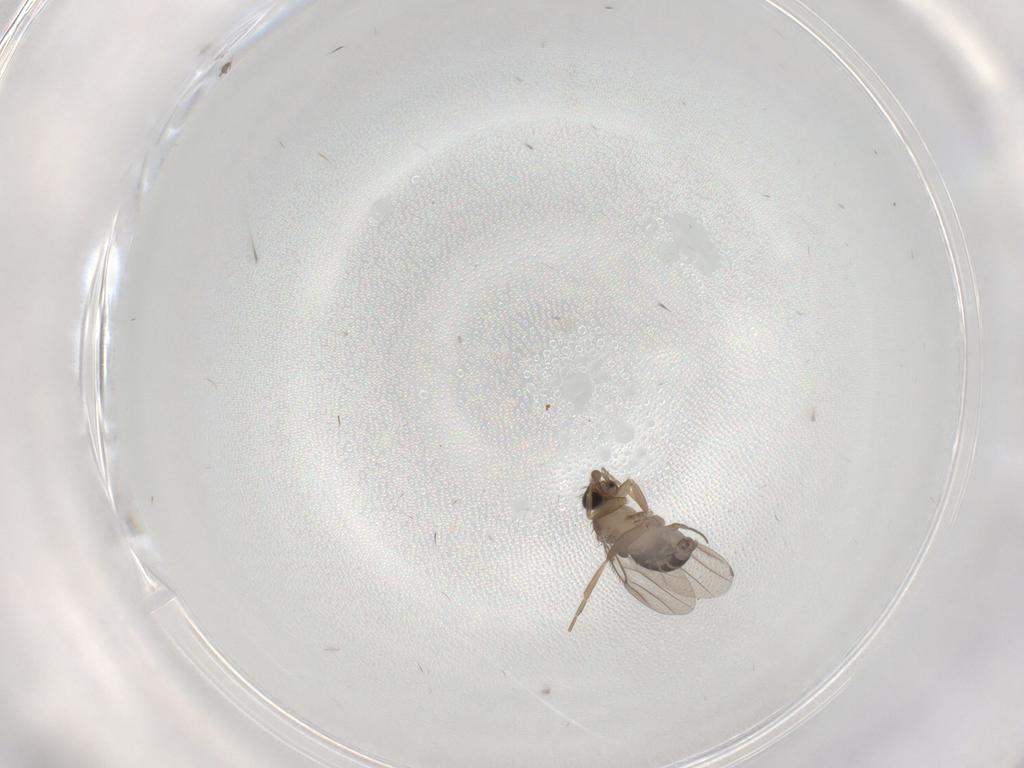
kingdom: Animalia
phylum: Arthropoda
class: Insecta
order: Diptera
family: Phoridae
